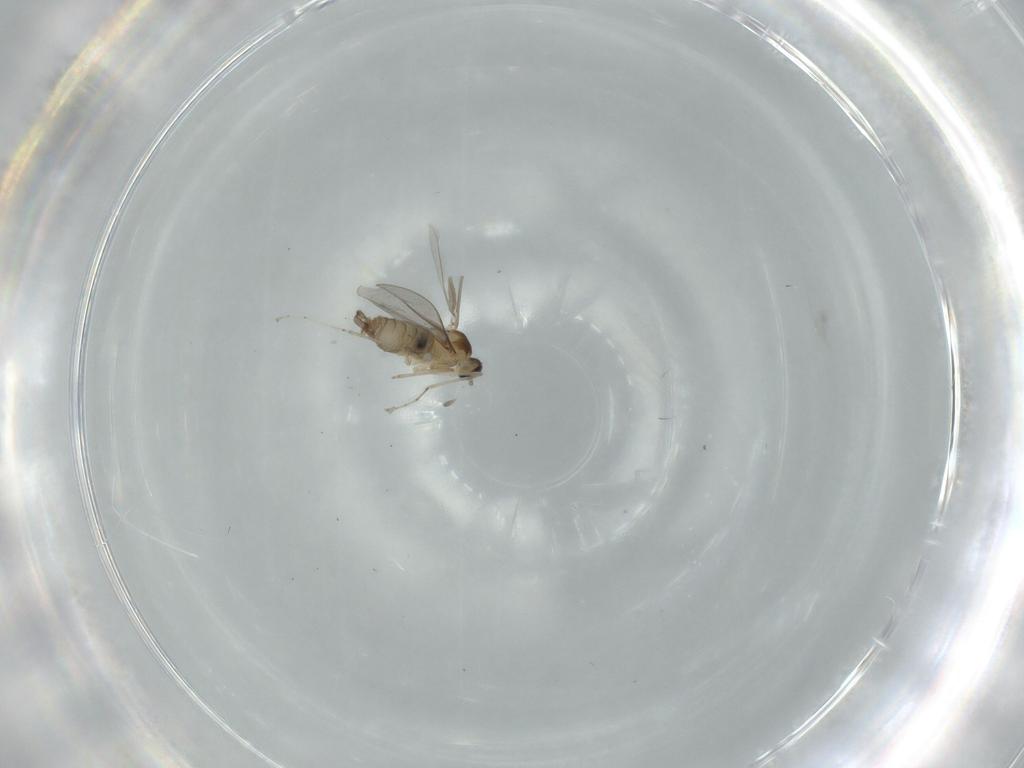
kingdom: Animalia
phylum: Arthropoda
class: Insecta
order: Diptera
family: Cecidomyiidae
